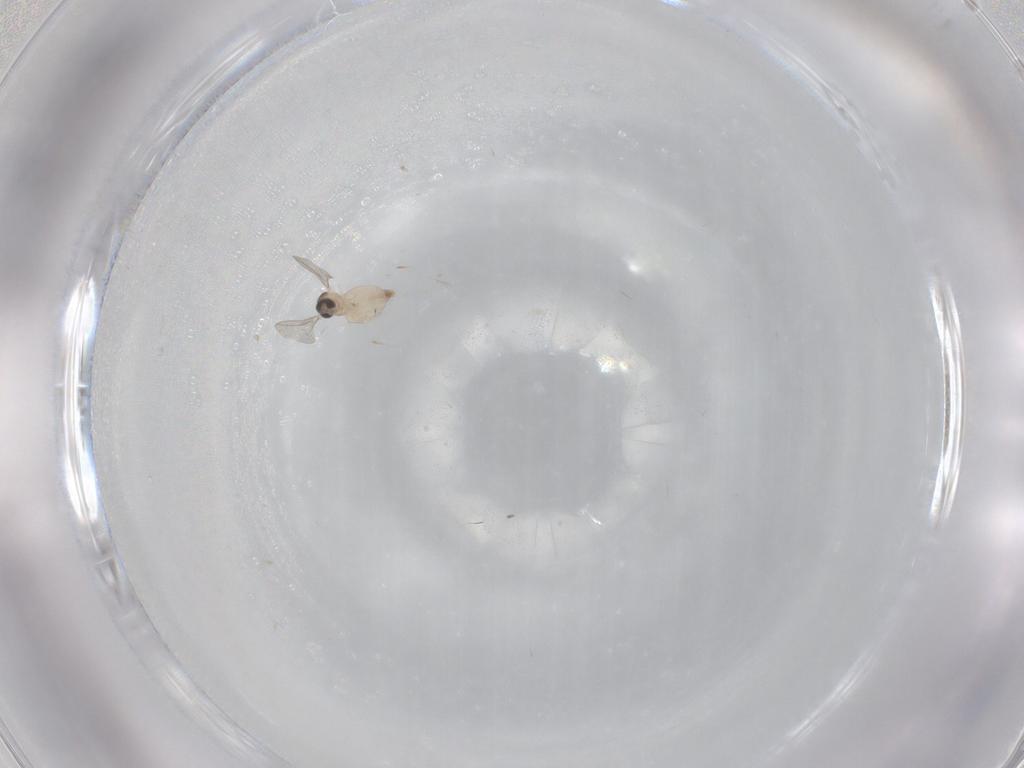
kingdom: Animalia
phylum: Arthropoda
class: Insecta
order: Diptera
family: Cecidomyiidae
